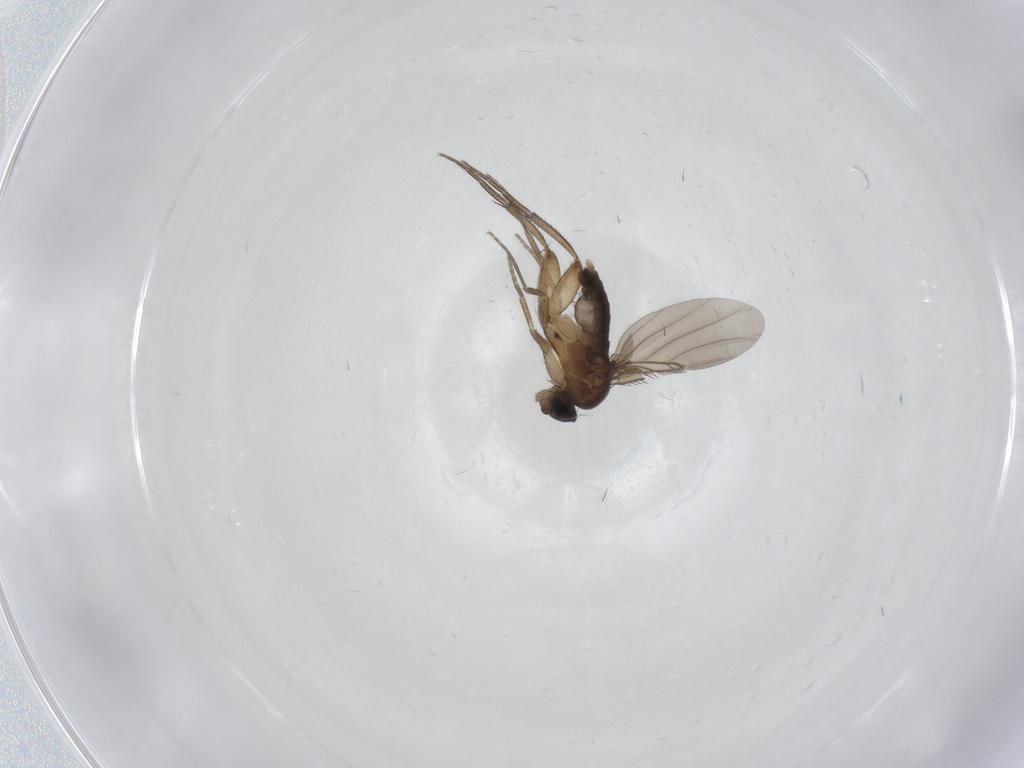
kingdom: Animalia
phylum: Arthropoda
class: Insecta
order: Diptera
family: Phoridae
